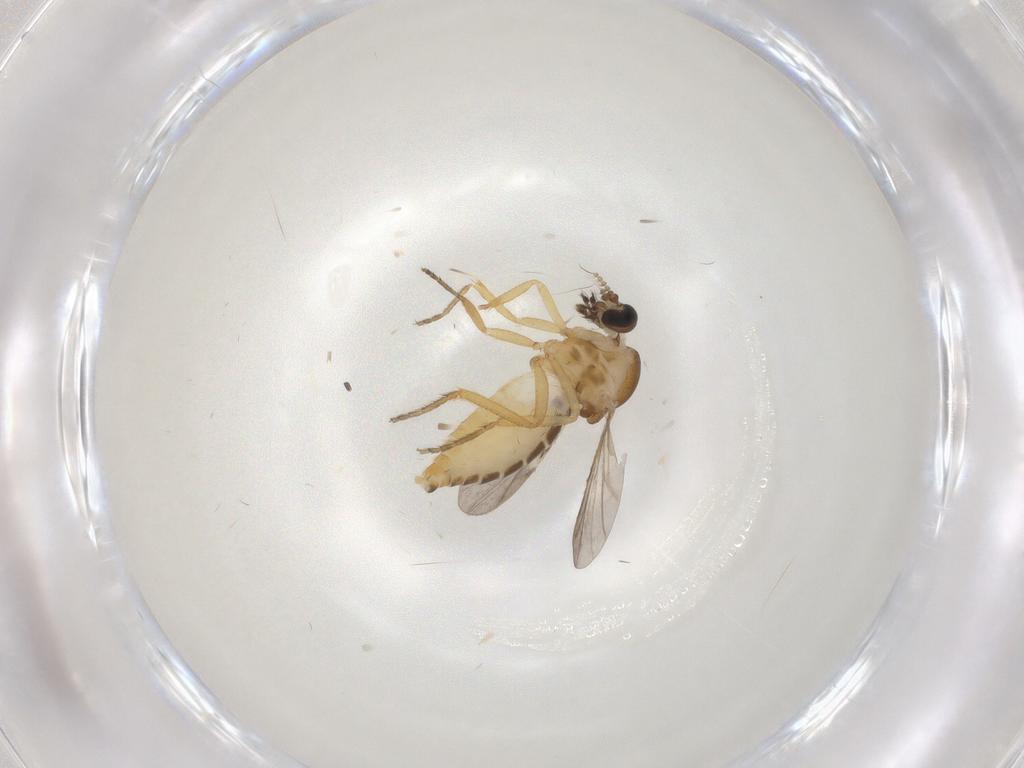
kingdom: Animalia
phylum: Arthropoda
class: Insecta
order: Diptera
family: Ceratopogonidae
